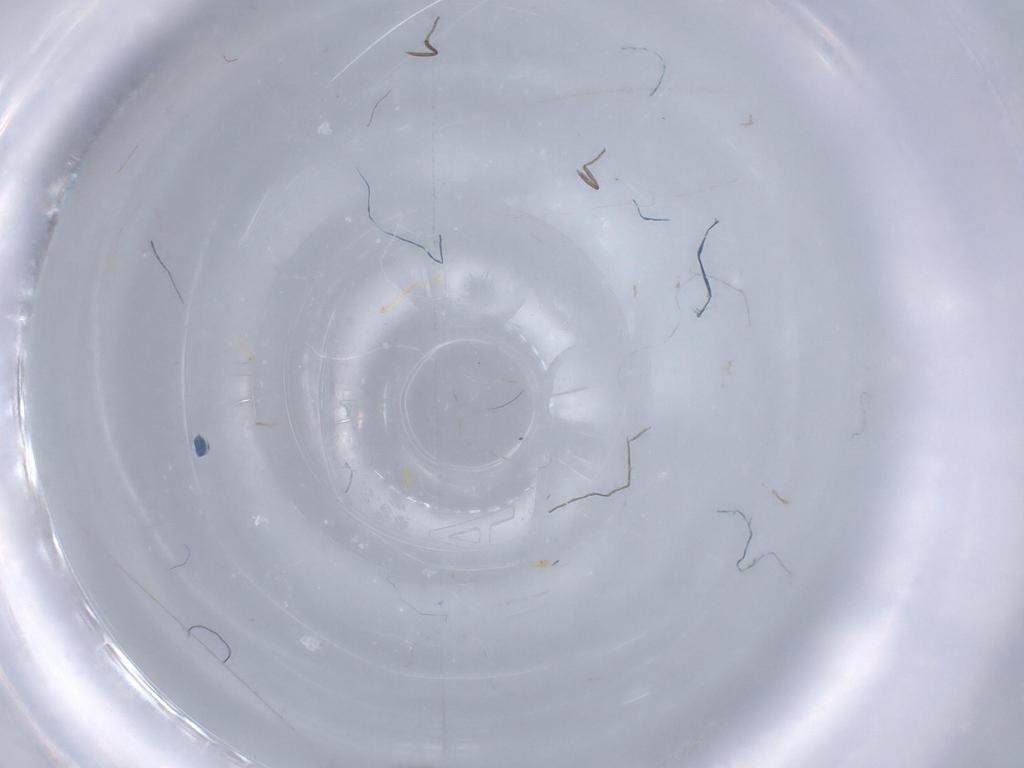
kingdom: Animalia
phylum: Arthropoda
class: Insecta
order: Diptera
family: Ceratopogonidae
